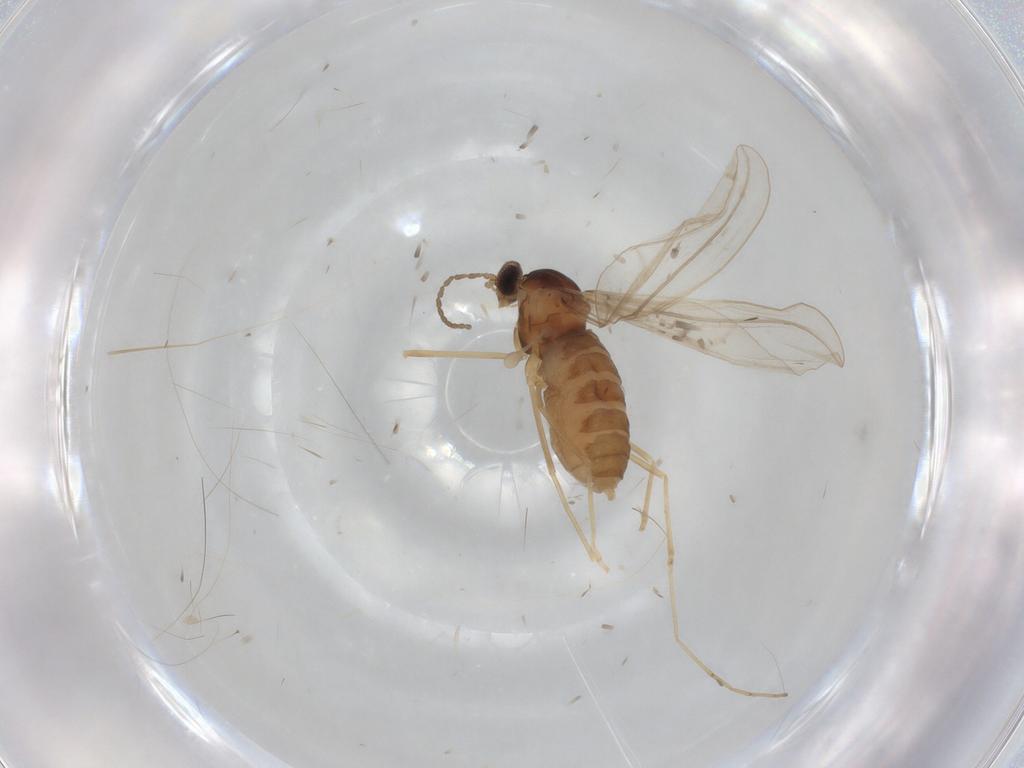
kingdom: Animalia
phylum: Arthropoda
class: Insecta
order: Diptera
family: Cecidomyiidae
